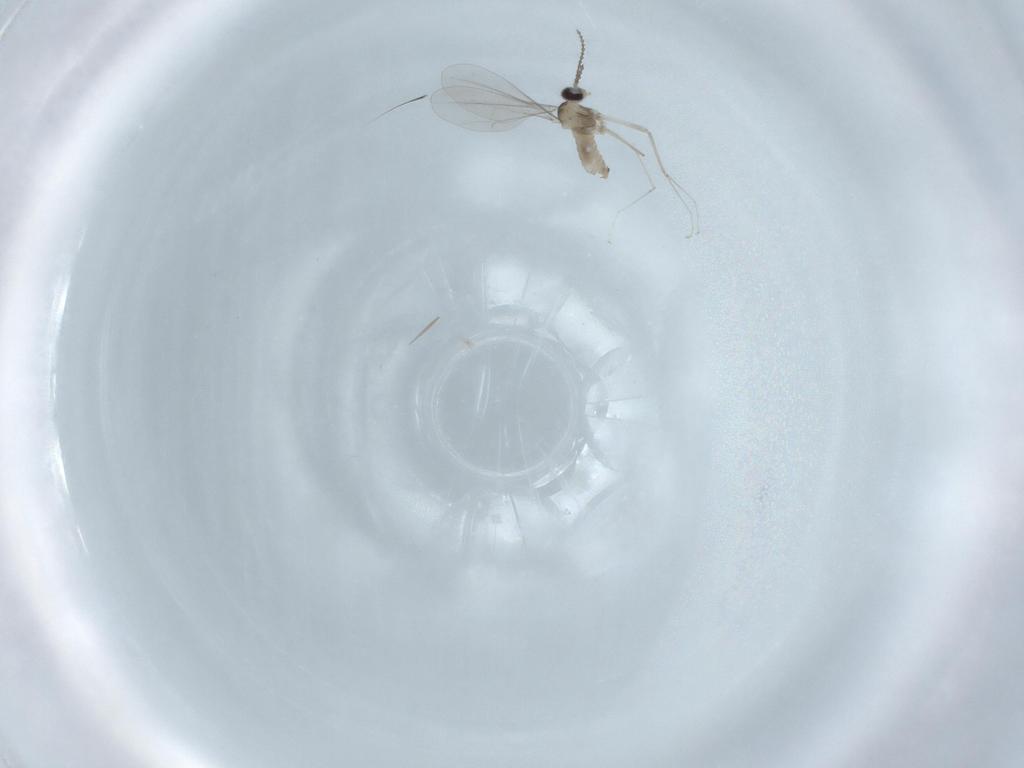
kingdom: Animalia
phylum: Arthropoda
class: Insecta
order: Diptera
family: Cecidomyiidae
